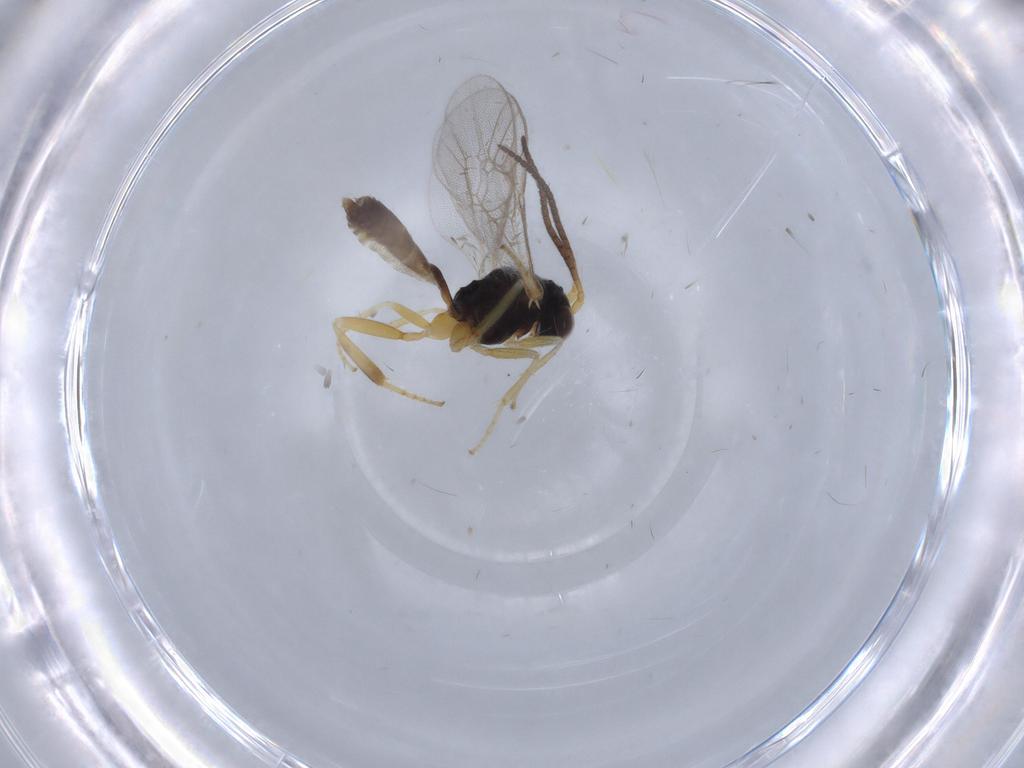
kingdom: Animalia
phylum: Arthropoda
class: Insecta
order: Hymenoptera
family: Ichneumonidae
